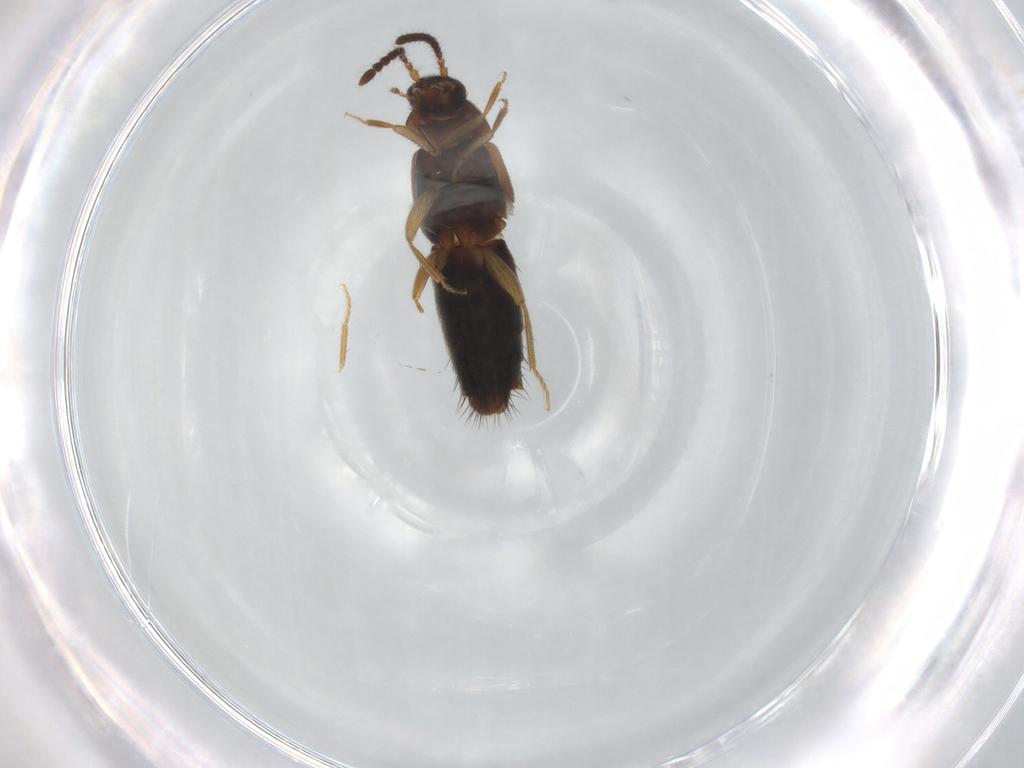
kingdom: Animalia
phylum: Arthropoda
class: Insecta
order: Coleoptera
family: Staphylinidae
